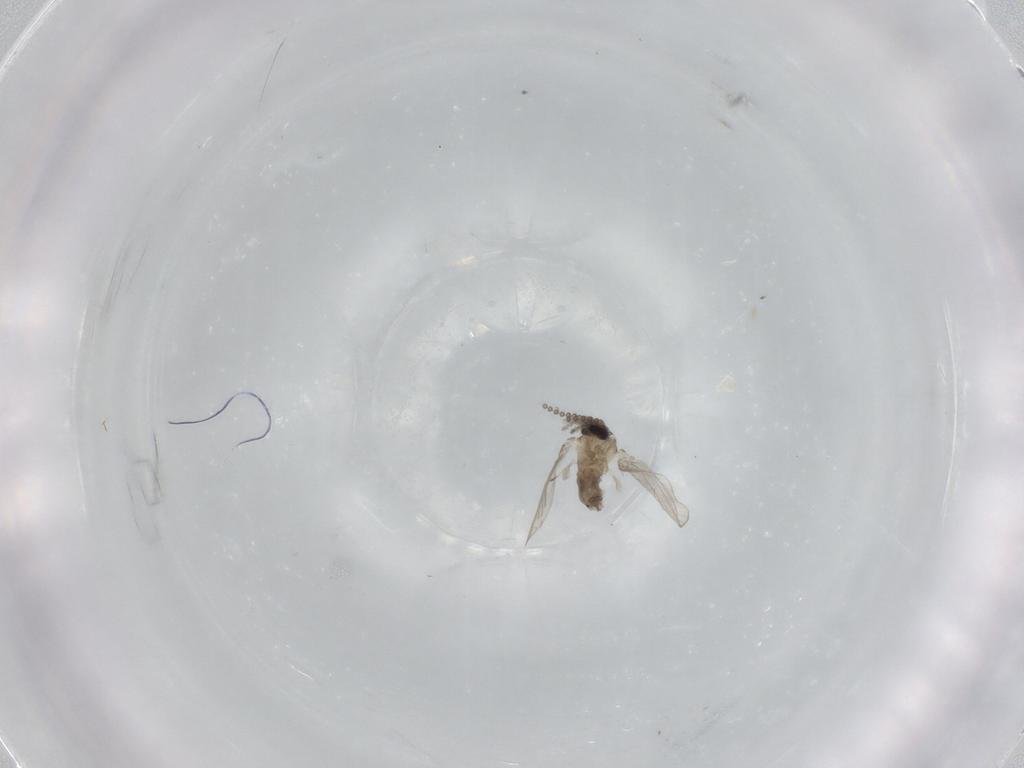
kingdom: Animalia
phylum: Arthropoda
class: Insecta
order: Diptera
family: Psychodidae
